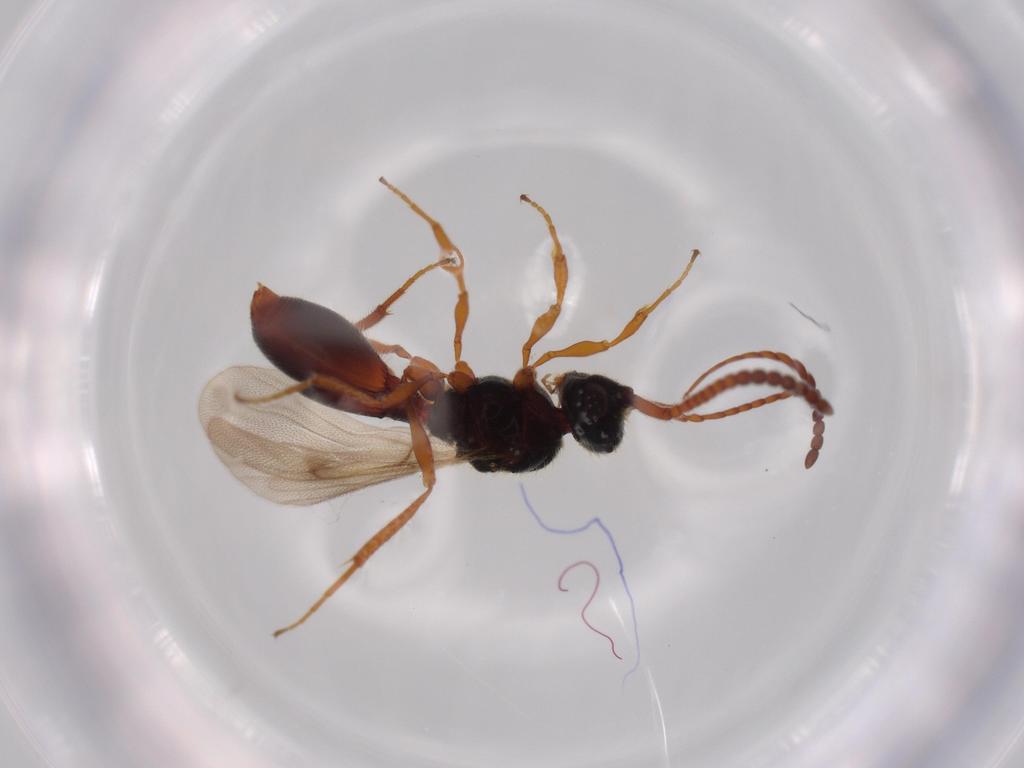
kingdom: Animalia
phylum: Arthropoda
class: Insecta
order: Hymenoptera
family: Diapriidae
